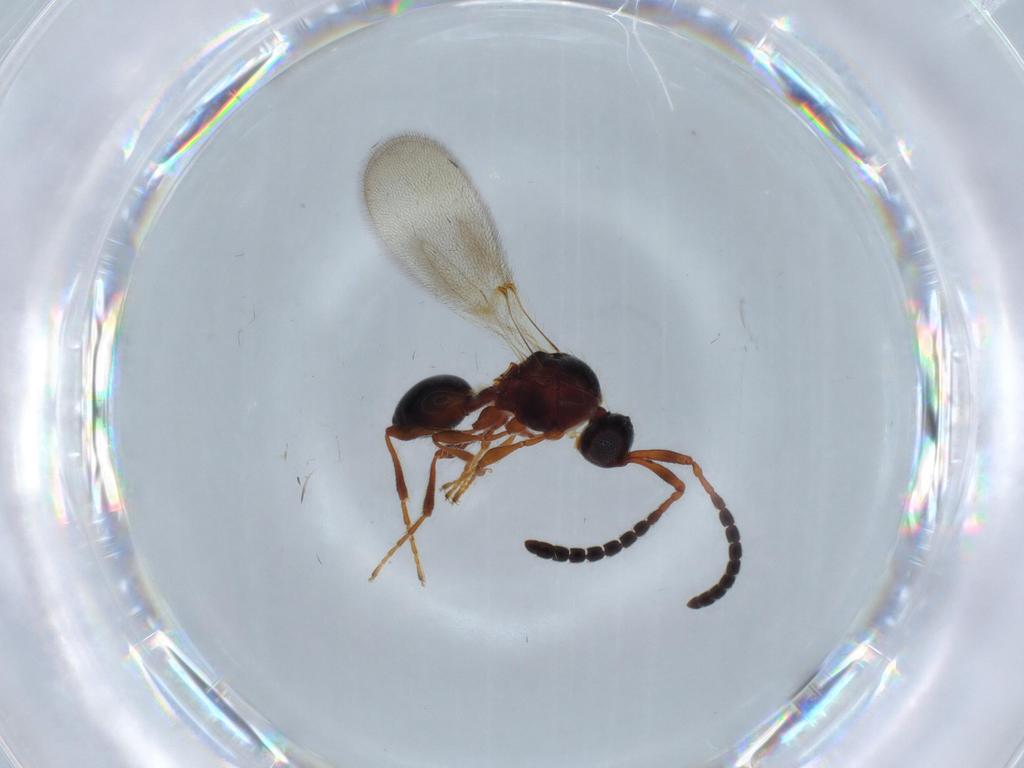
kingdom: Animalia
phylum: Arthropoda
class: Insecta
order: Hymenoptera
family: Diapriidae
